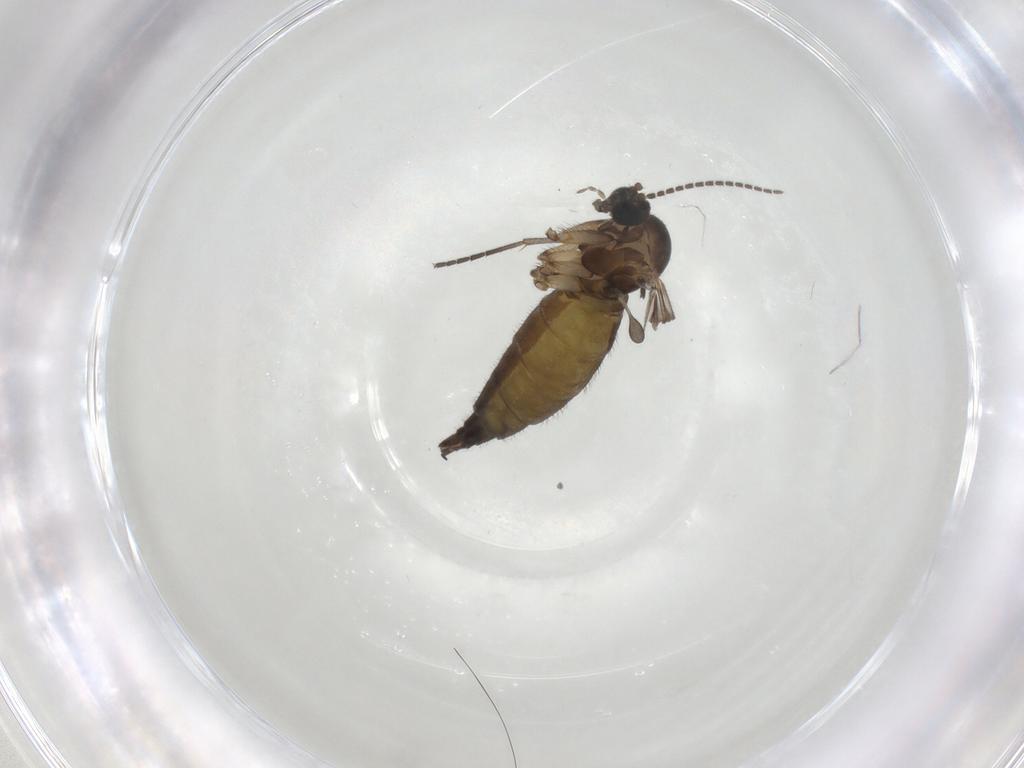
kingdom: Animalia
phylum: Arthropoda
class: Insecta
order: Diptera
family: Sciaridae
